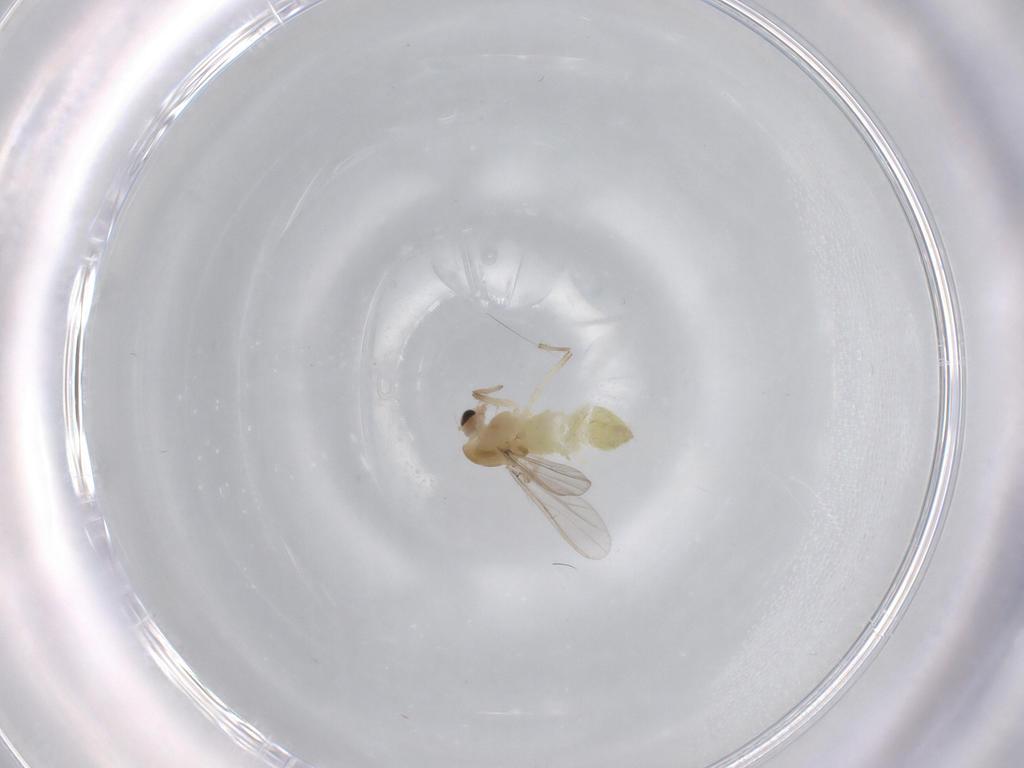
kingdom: Animalia
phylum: Arthropoda
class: Insecta
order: Diptera
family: Chironomidae
